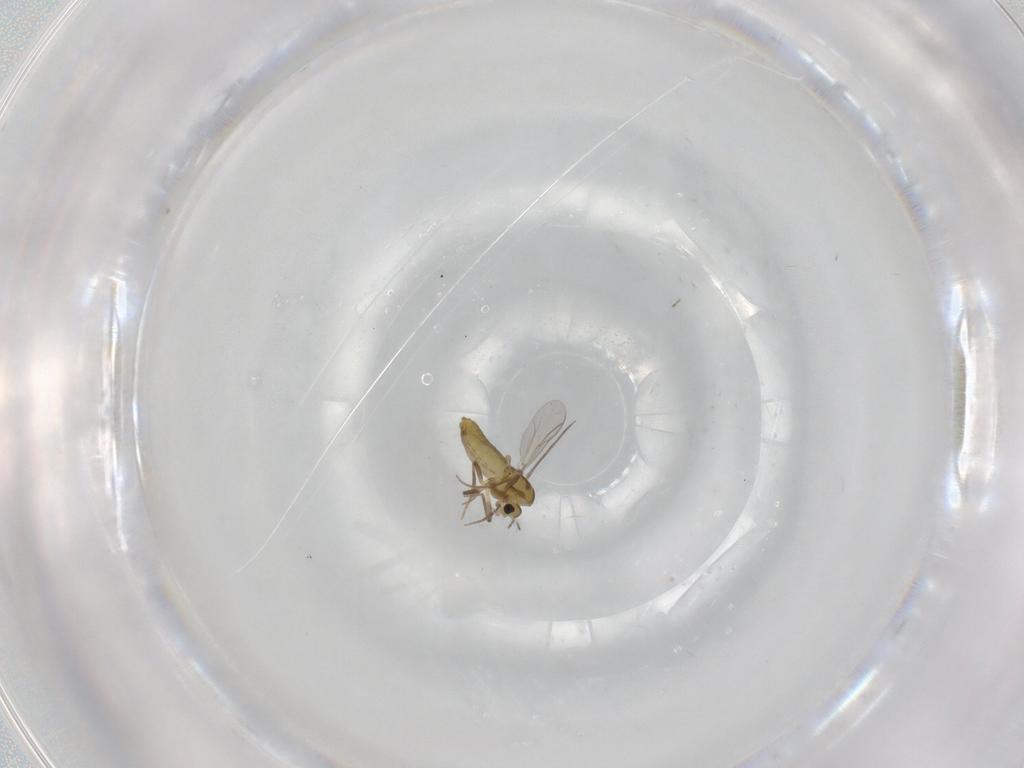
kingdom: Animalia
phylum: Arthropoda
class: Insecta
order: Diptera
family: Chironomidae
